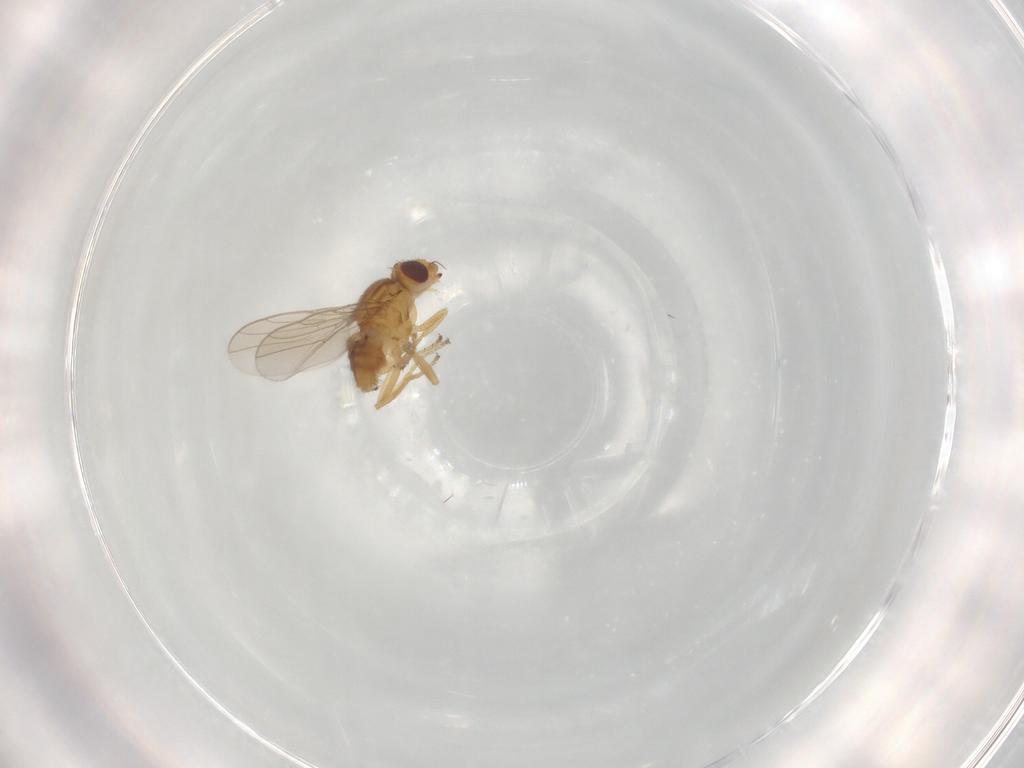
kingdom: Animalia
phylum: Arthropoda
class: Insecta
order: Diptera
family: Chloropidae
